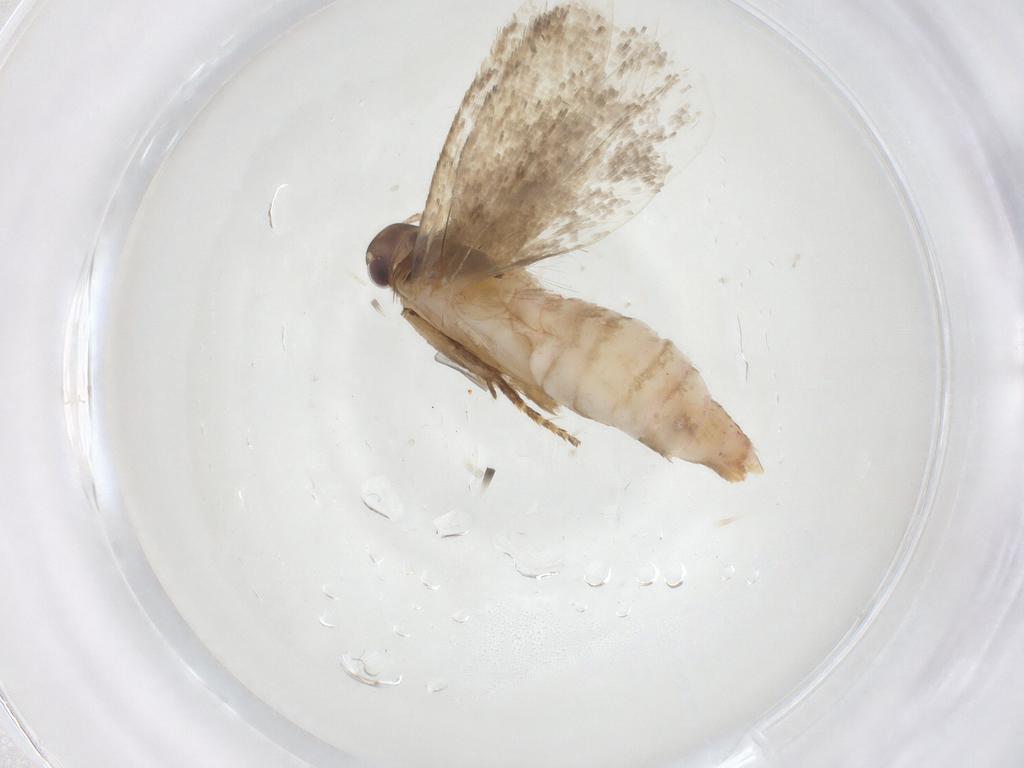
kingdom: Animalia
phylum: Arthropoda
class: Insecta
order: Lepidoptera
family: Gelechiidae
